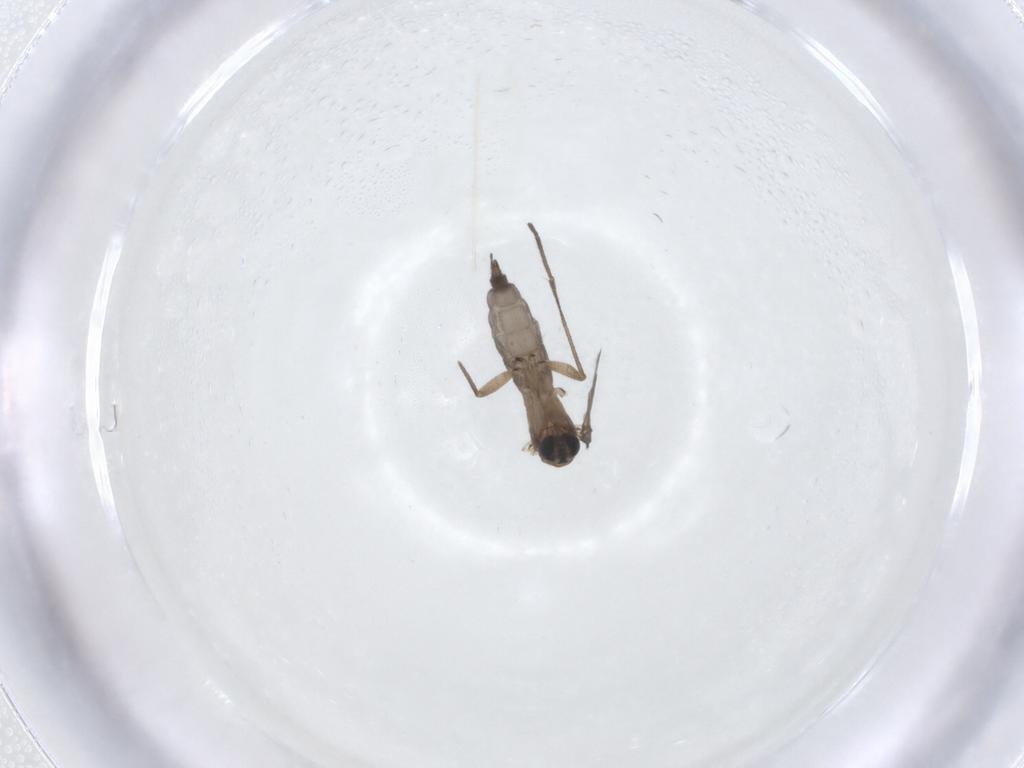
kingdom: Animalia
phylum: Arthropoda
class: Insecta
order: Diptera
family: Sciaridae
